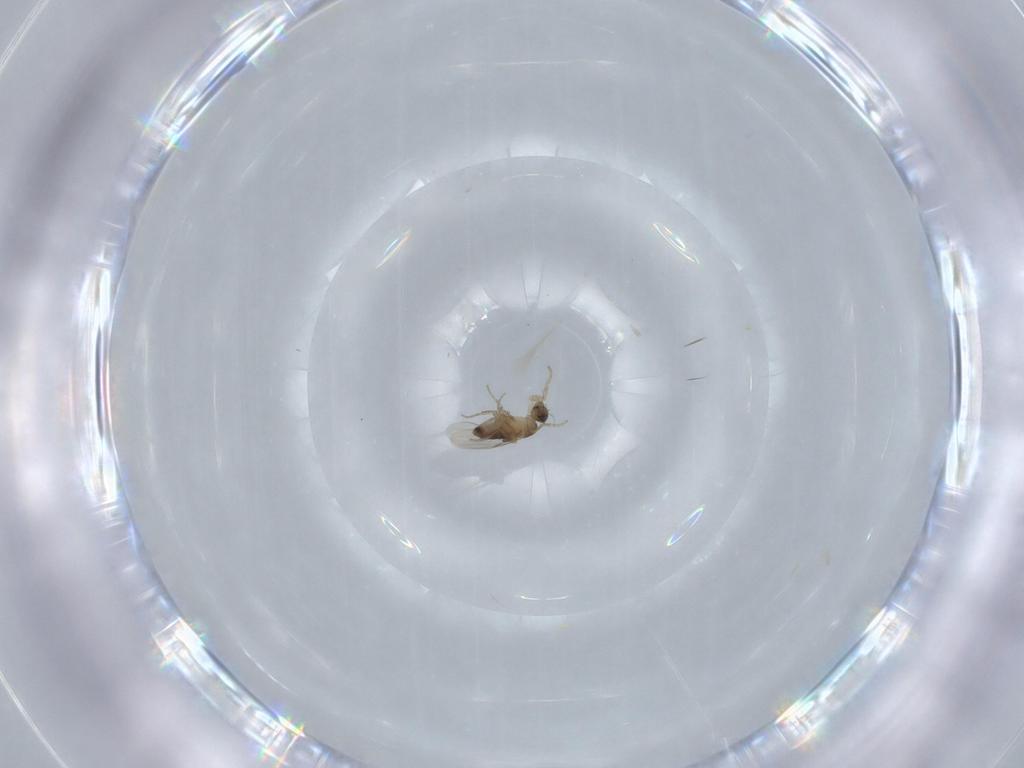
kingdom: Animalia
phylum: Arthropoda
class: Insecta
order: Diptera
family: Phoridae
